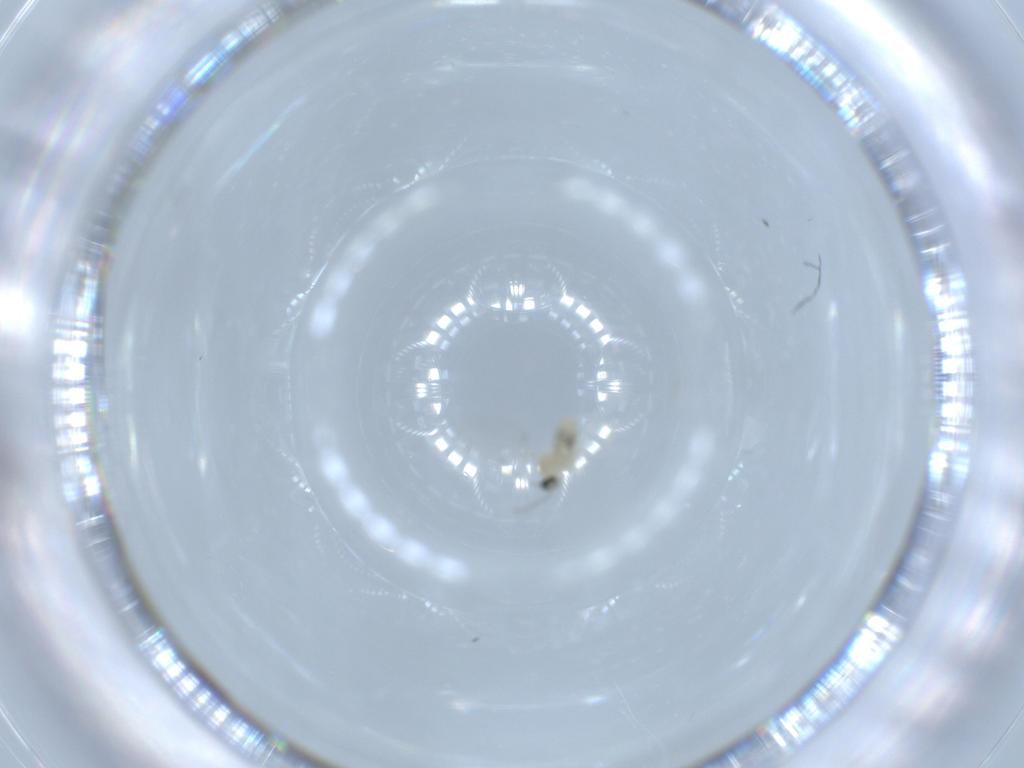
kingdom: Animalia
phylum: Arthropoda
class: Insecta
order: Diptera
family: Cecidomyiidae
